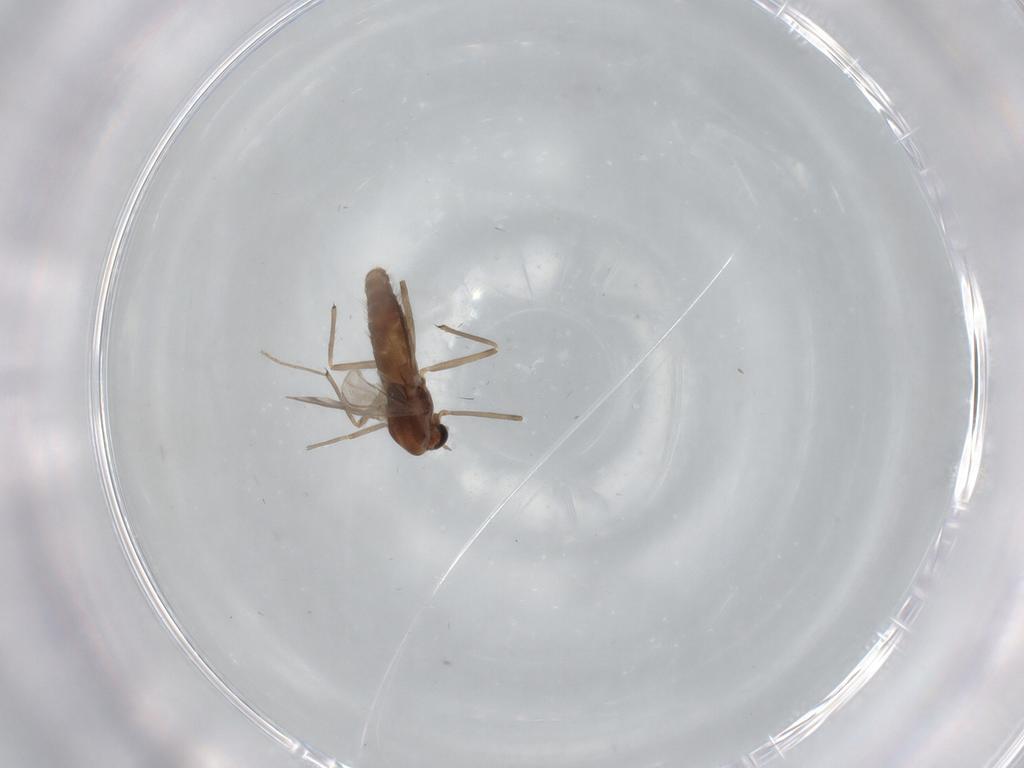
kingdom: Animalia
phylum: Arthropoda
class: Insecta
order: Diptera
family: Chironomidae
